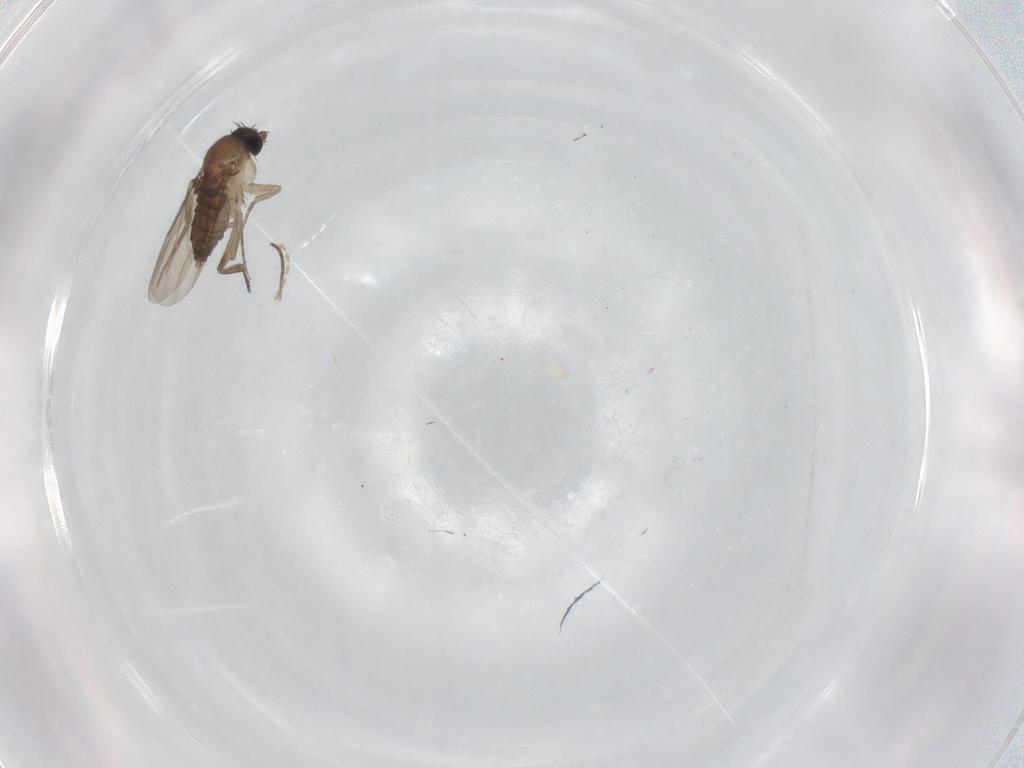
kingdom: Animalia
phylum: Arthropoda
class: Insecta
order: Diptera
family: Phoridae
